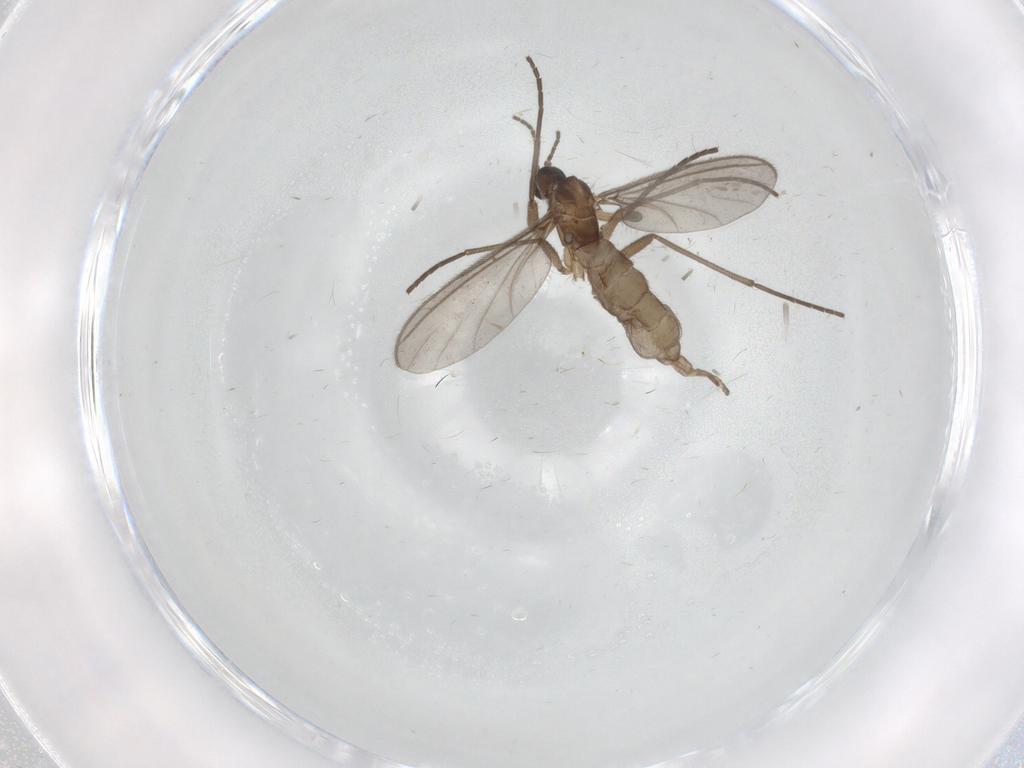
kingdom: Animalia
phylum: Arthropoda
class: Insecta
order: Diptera
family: Sciaridae
